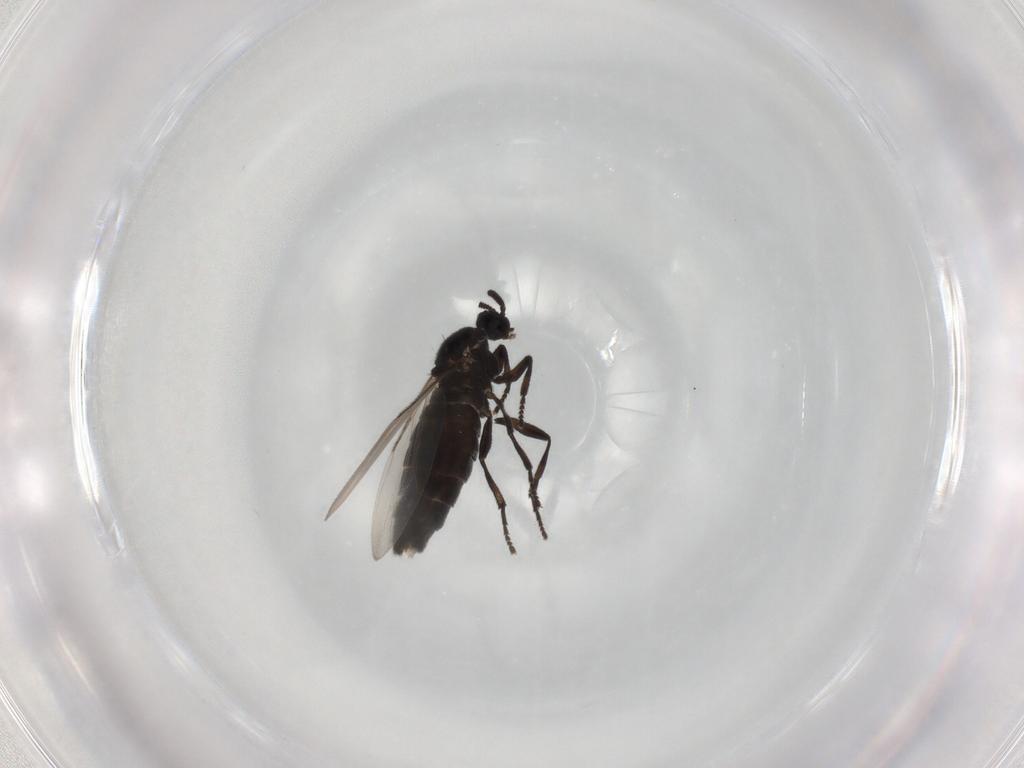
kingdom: Animalia
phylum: Arthropoda
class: Insecta
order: Diptera
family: Scatopsidae
